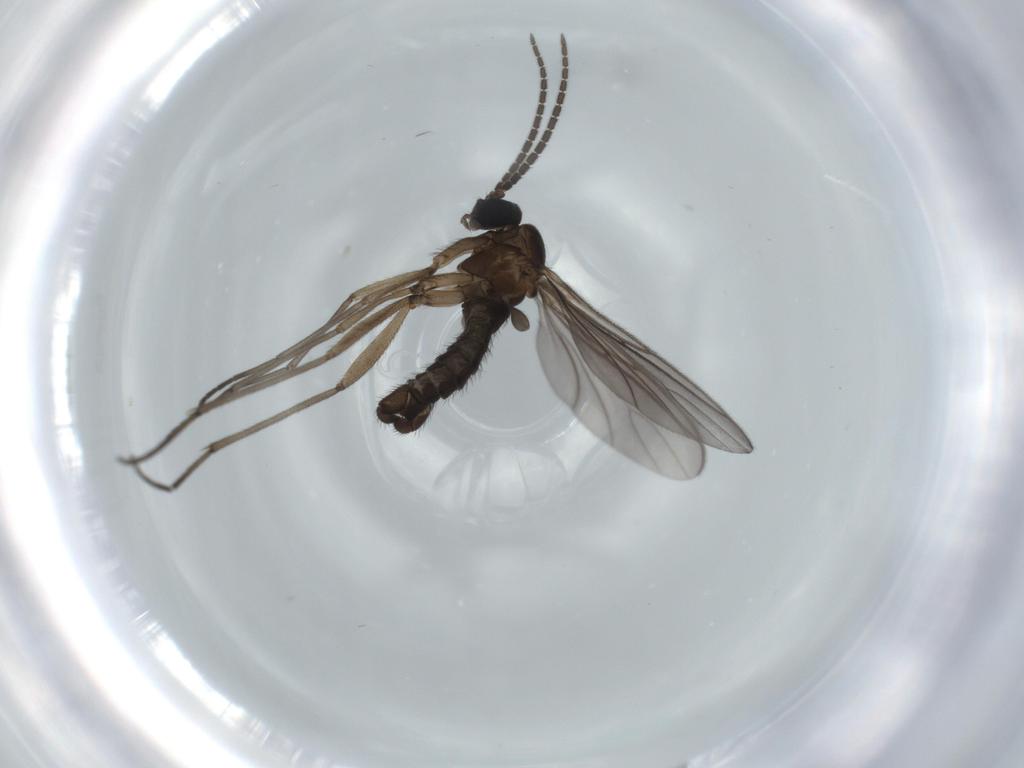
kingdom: Animalia
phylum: Arthropoda
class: Insecta
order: Diptera
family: Sciaridae
